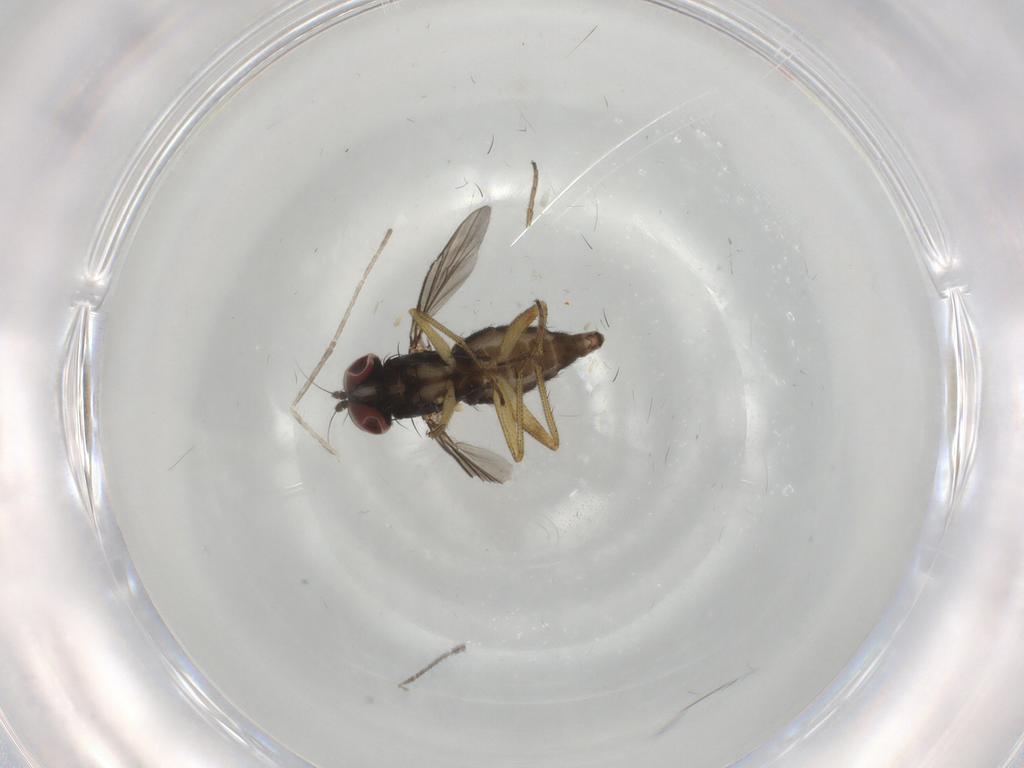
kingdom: Animalia
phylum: Arthropoda
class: Insecta
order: Diptera
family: Dolichopodidae
